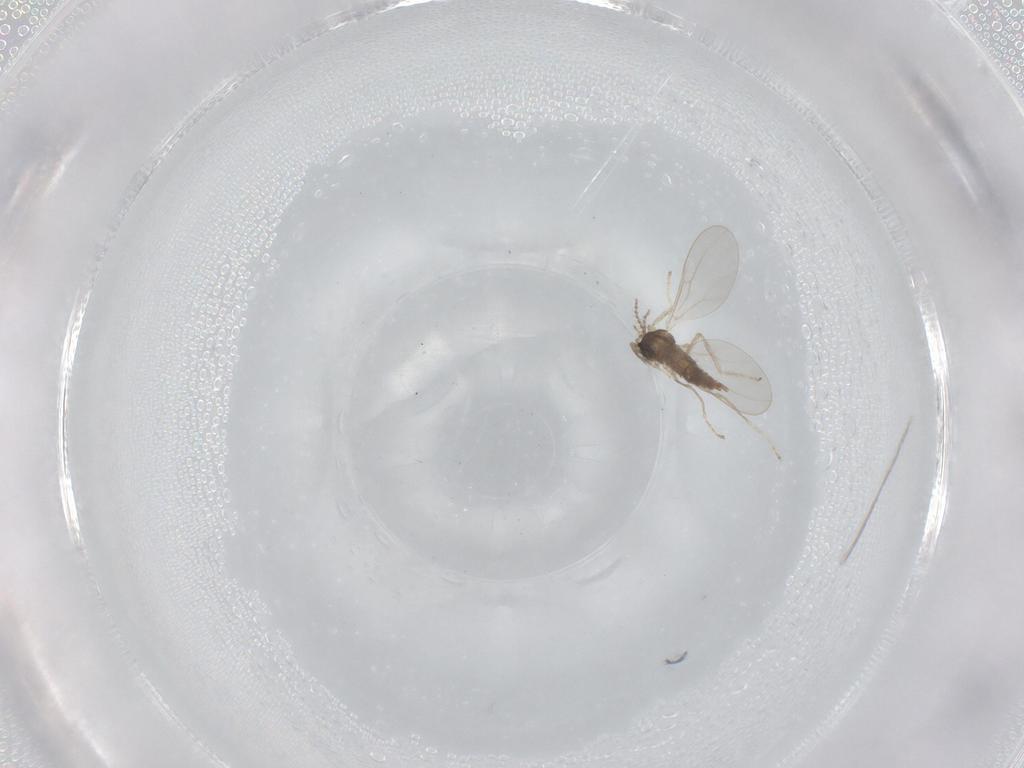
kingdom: Animalia
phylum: Arthropoda
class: Insecta
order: Diptera
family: Cecidomyiidae
